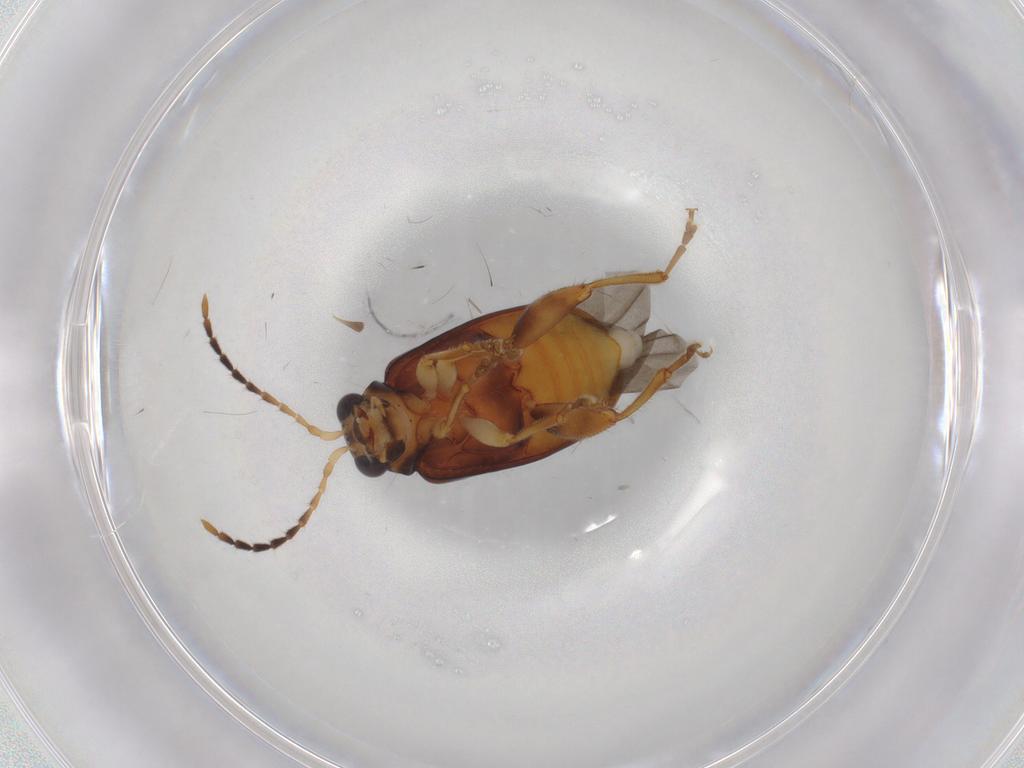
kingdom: Animalia
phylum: Arthropoda
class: Insecta
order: Coleoptera
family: Chrysomelidae
